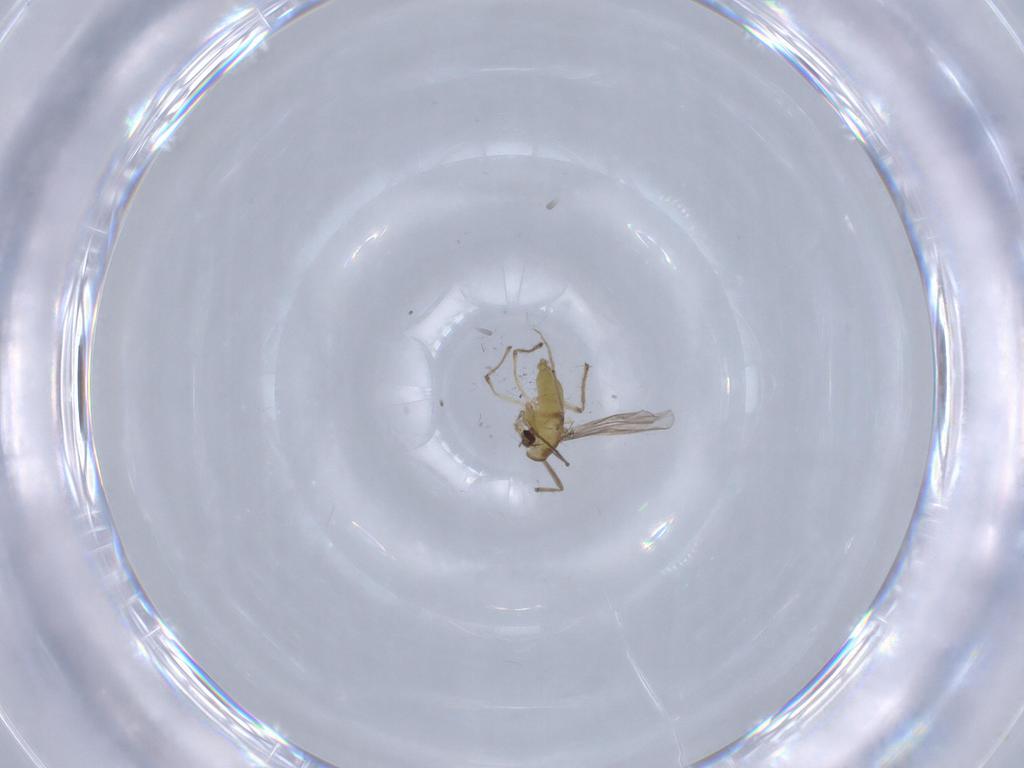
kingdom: Animalia
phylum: Arthropoda
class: Insecta
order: Diptera
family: Chironomidae
